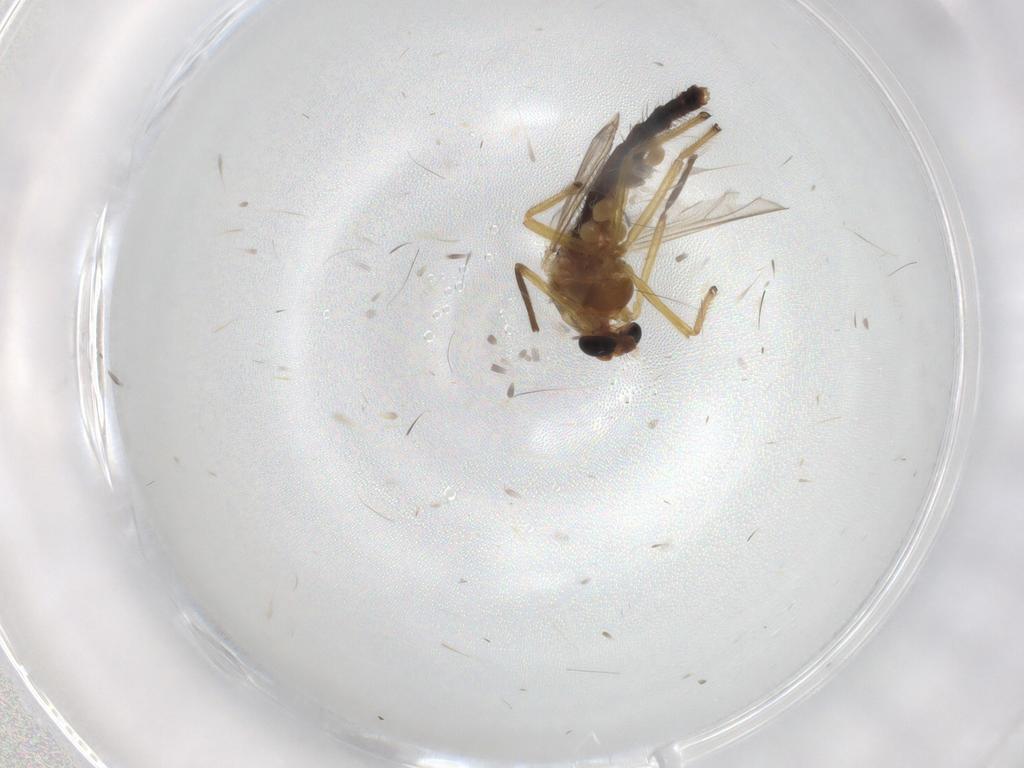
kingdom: Animalia
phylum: Arthropoda
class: Insecta
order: Diptera
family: Chironomidae
